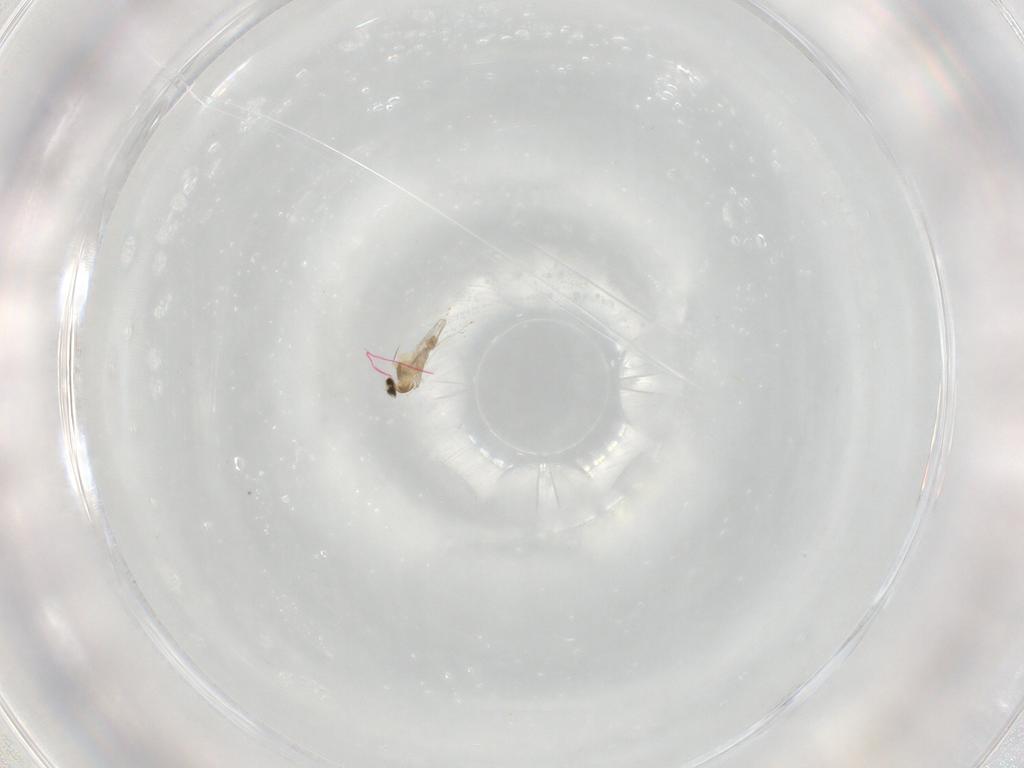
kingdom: Animalia
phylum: Arthropoda
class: Insecta
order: Diptera
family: Cecidomyiidae
